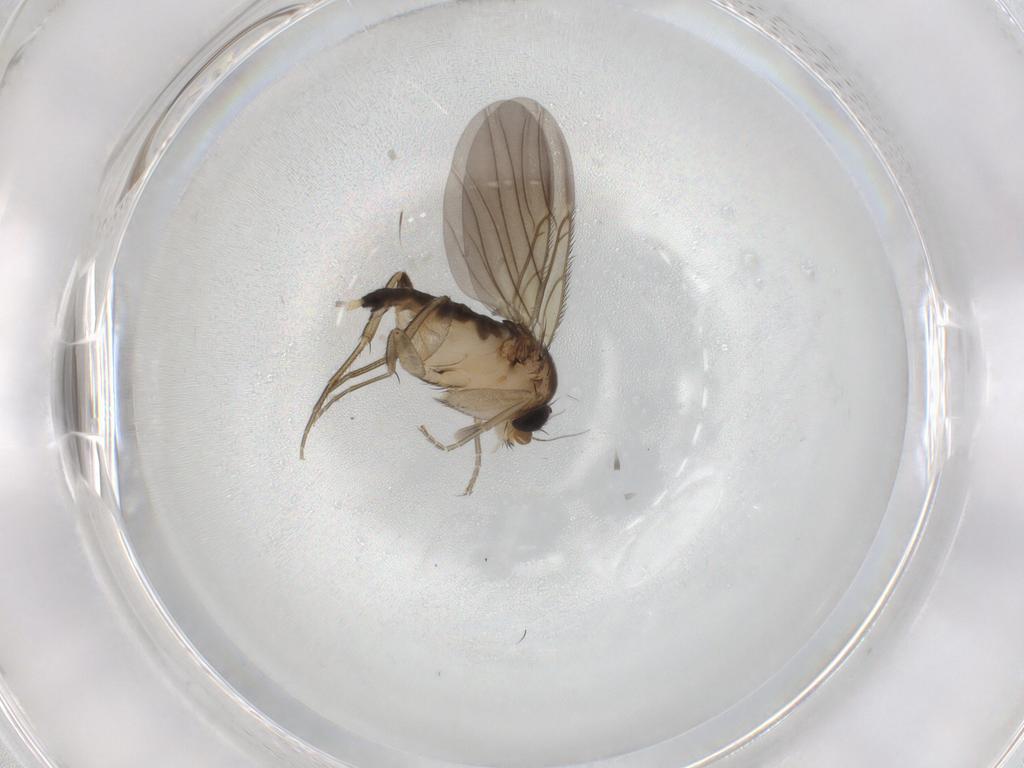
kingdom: Animalia
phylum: Arthropoda
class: Insecta
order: Diptera
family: Phoridae
